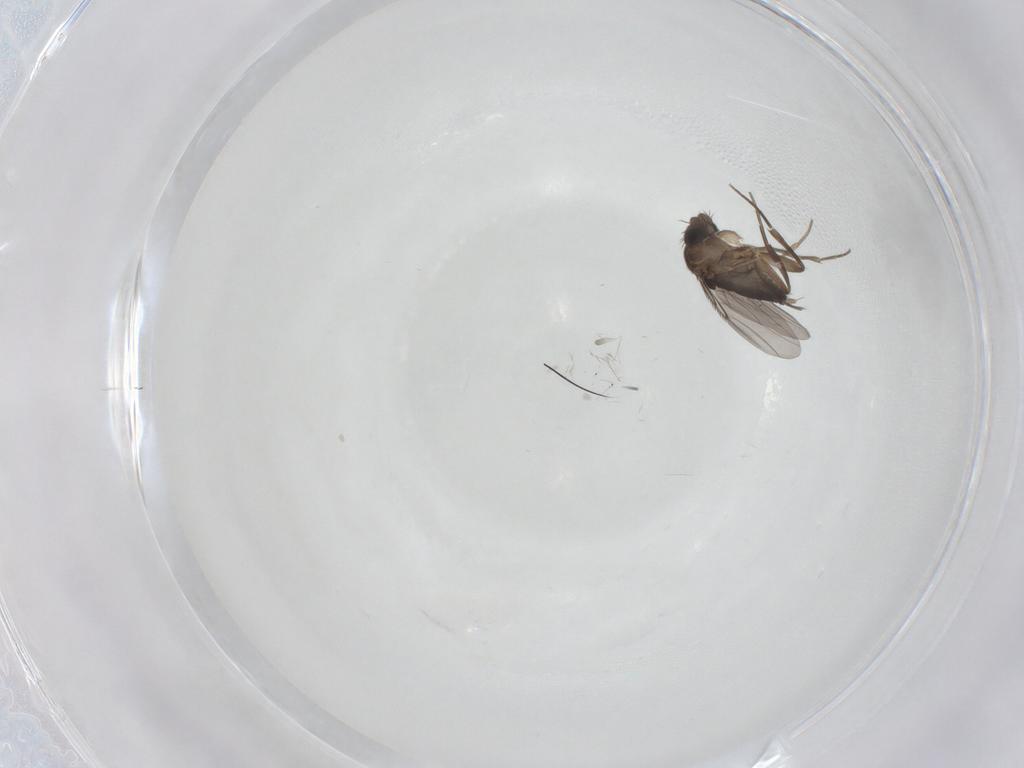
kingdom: Animalia
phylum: Arthropoda
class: Insecta
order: Diptera
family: Phoridae
